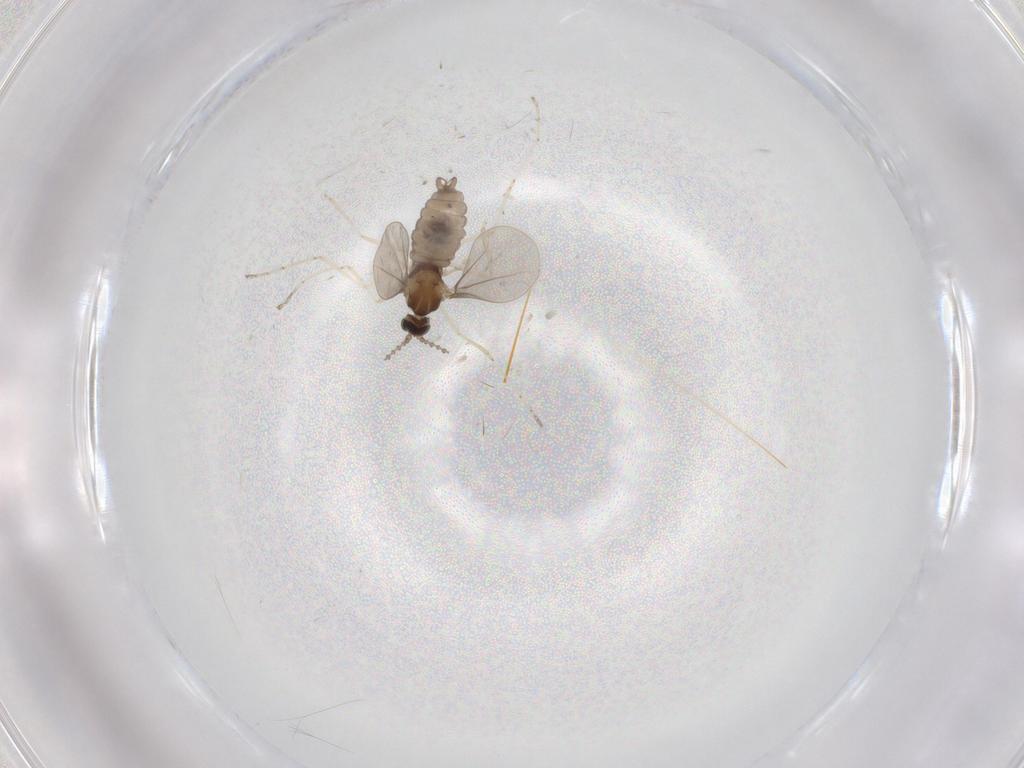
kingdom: Animalia
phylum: Arthropoda
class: Insecta
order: Diptera
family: Cecidomyiidae
